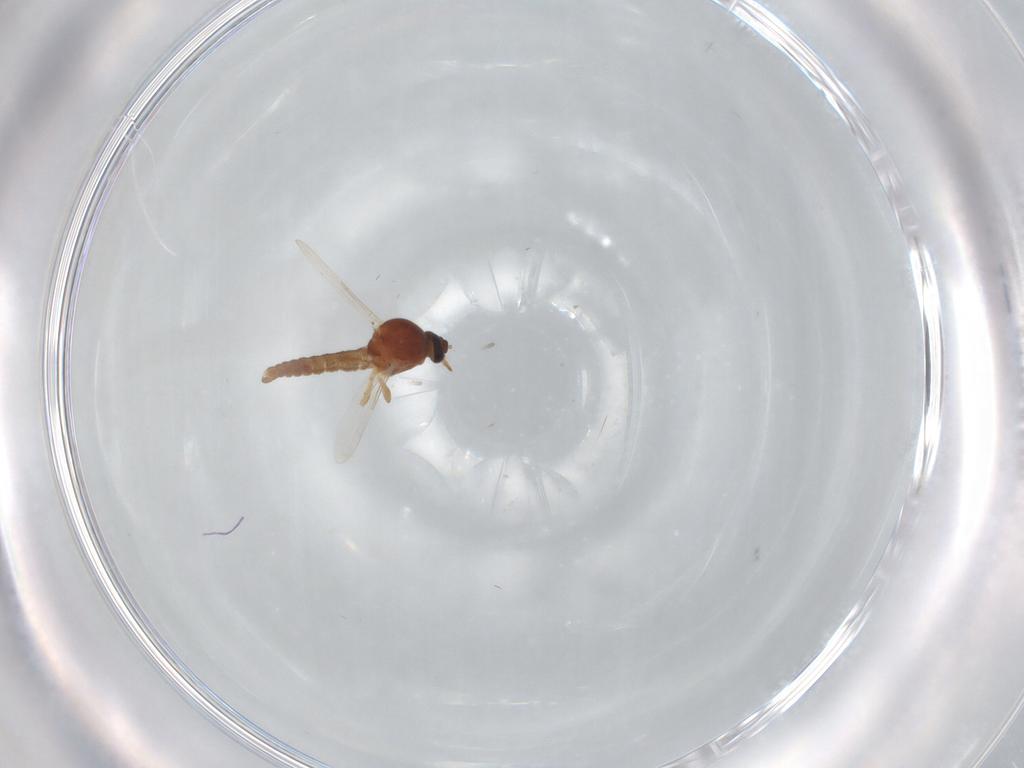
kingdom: Animalia
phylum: Arthropoda
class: Insecta
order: Diptera
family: Ceratopogonidae
